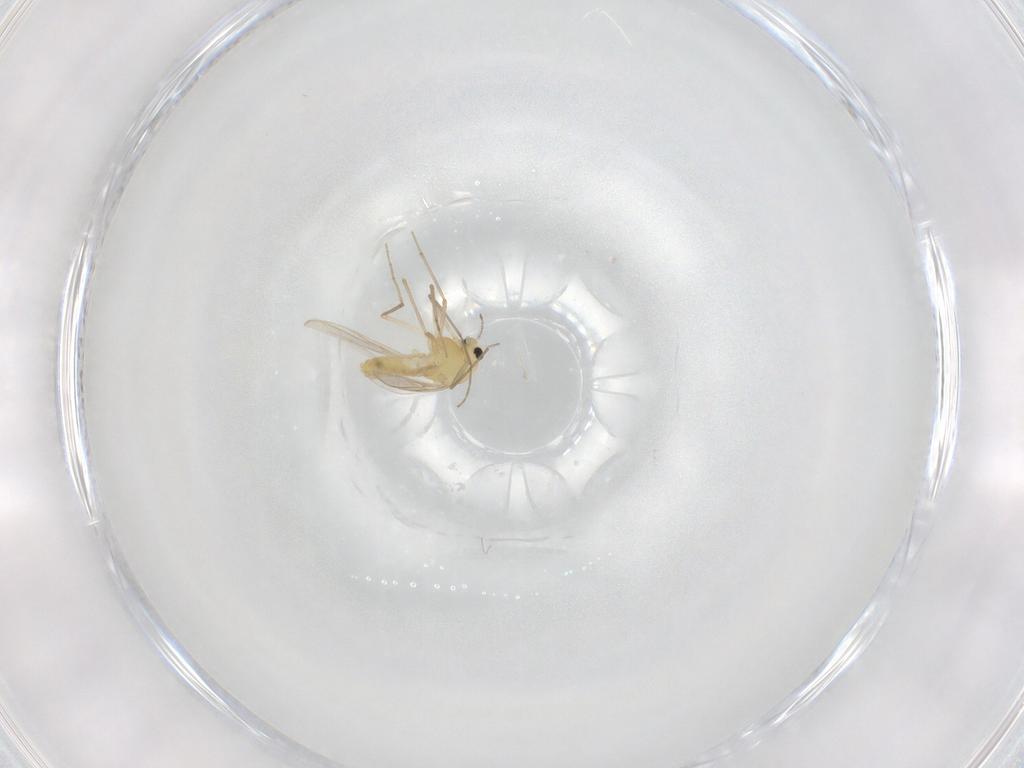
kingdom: Animalia
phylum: Arthropoda
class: Insecta
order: Diptera
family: Chironomidae
